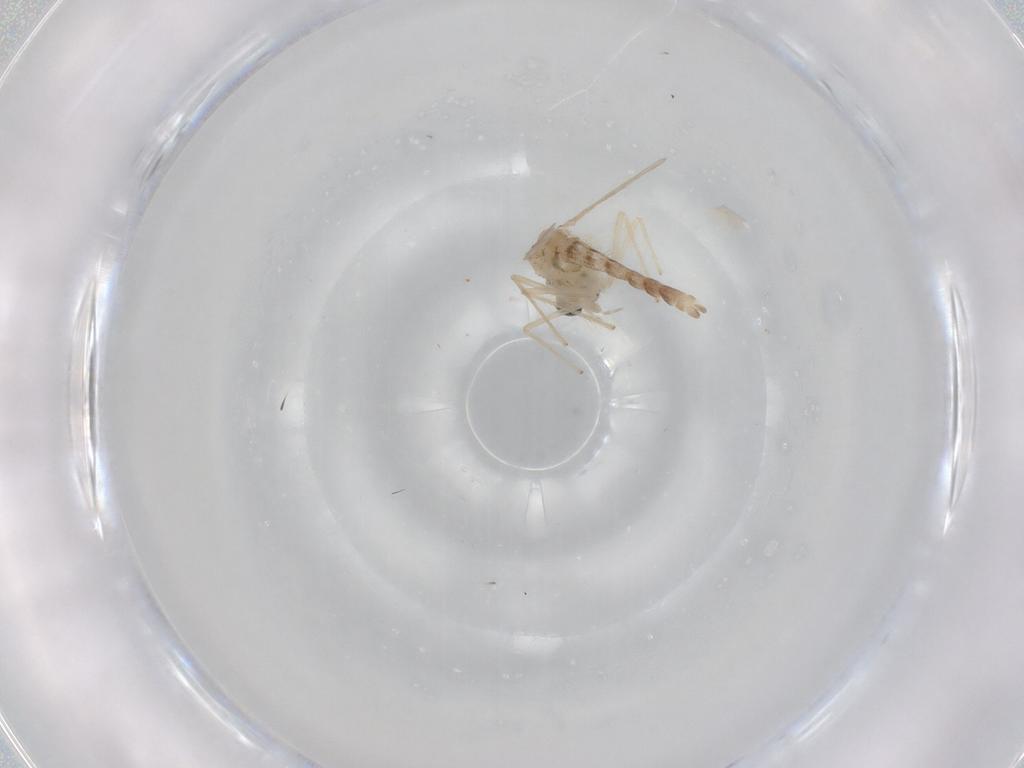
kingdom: Animalia
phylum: Arthropoda
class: Insecta
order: Diptera
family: Chironomidae
